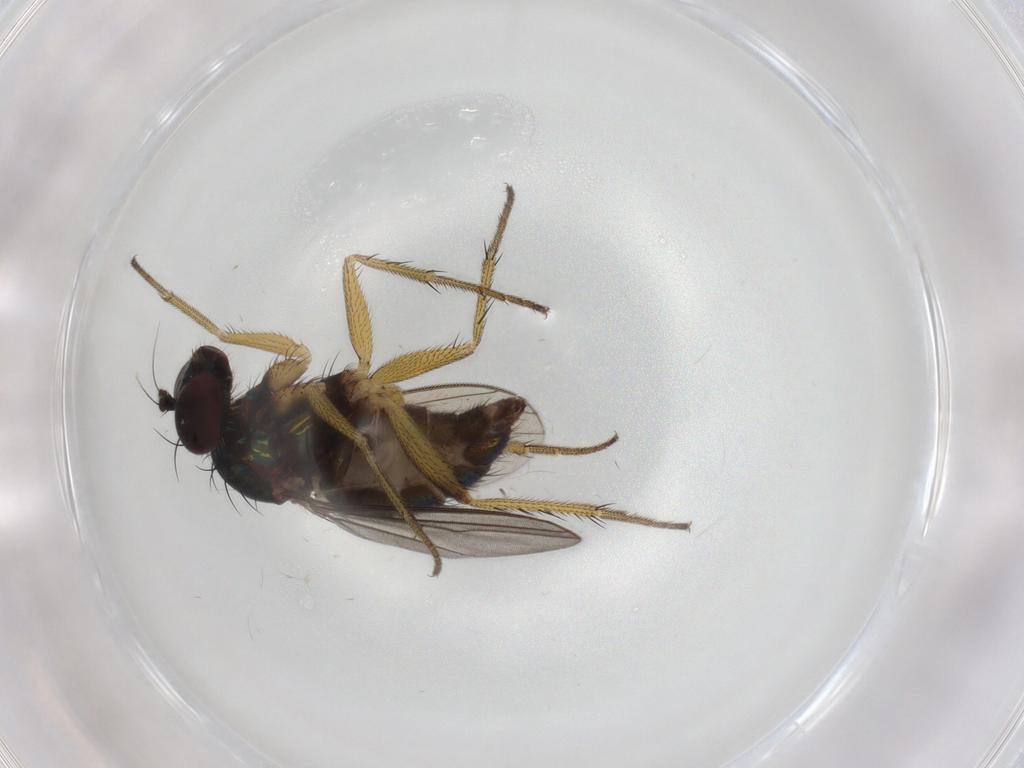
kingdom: Animalia
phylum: Arthropoda
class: Insecta
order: Diptera
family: Dolichopodidae
